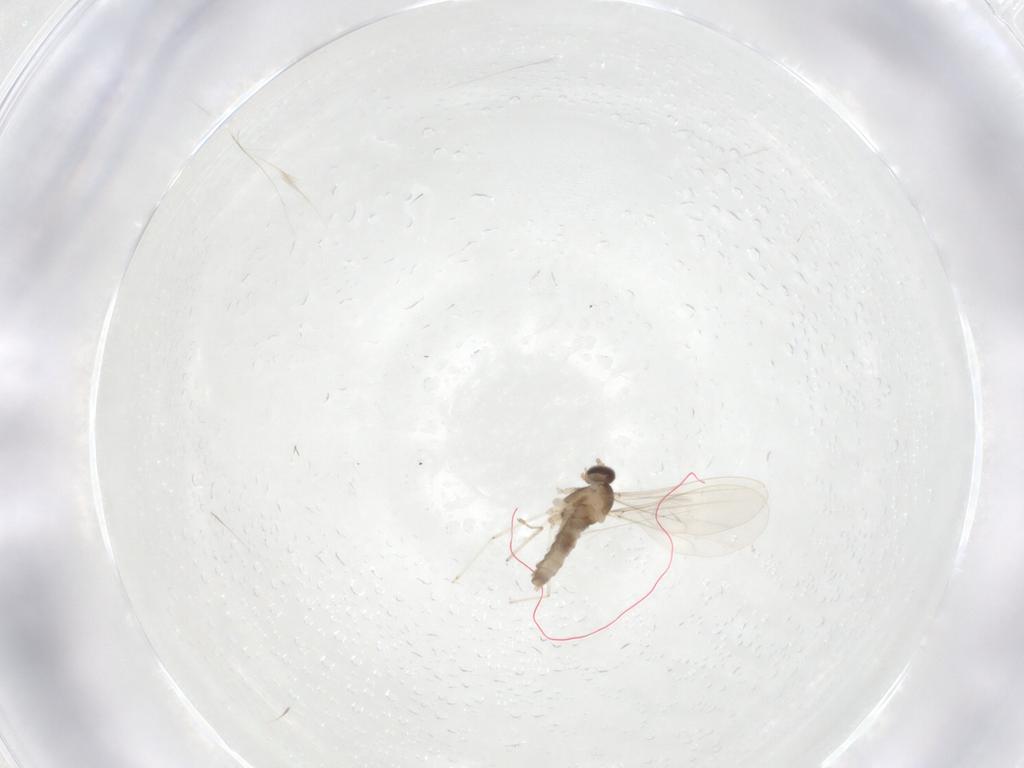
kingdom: Animalia
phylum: Arthropoda
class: Insecta
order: Diptera
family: Cecidomyiidae
